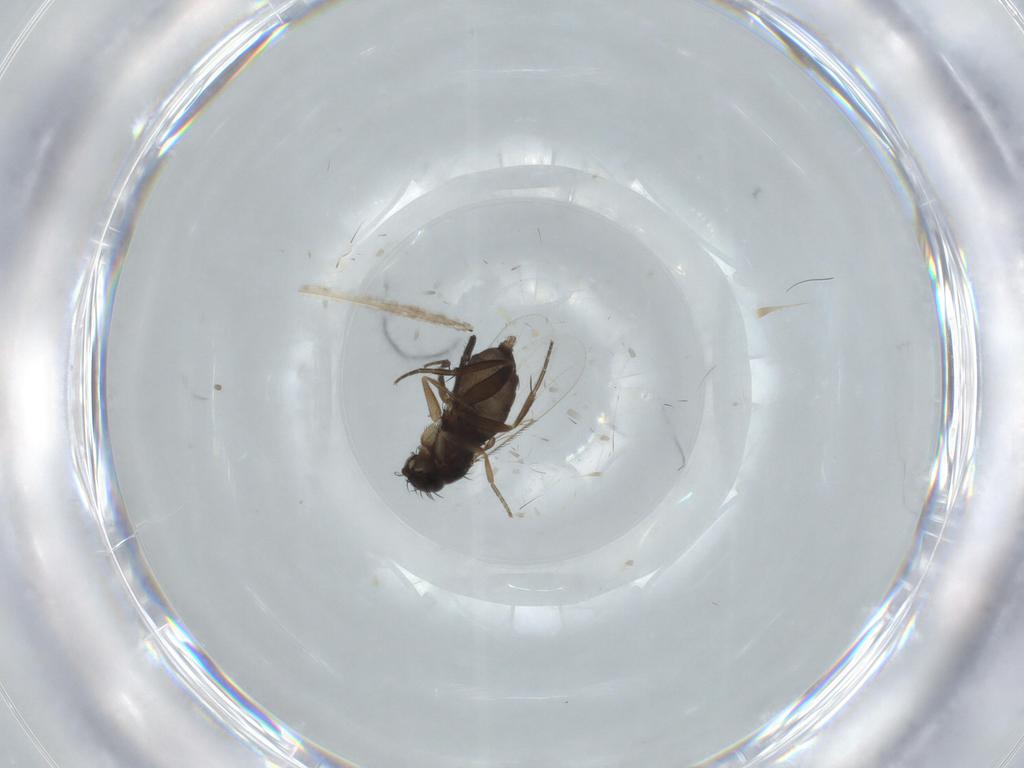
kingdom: Animalia
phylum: Arthropoda
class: Insecta
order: Diptera
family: Phoridae
